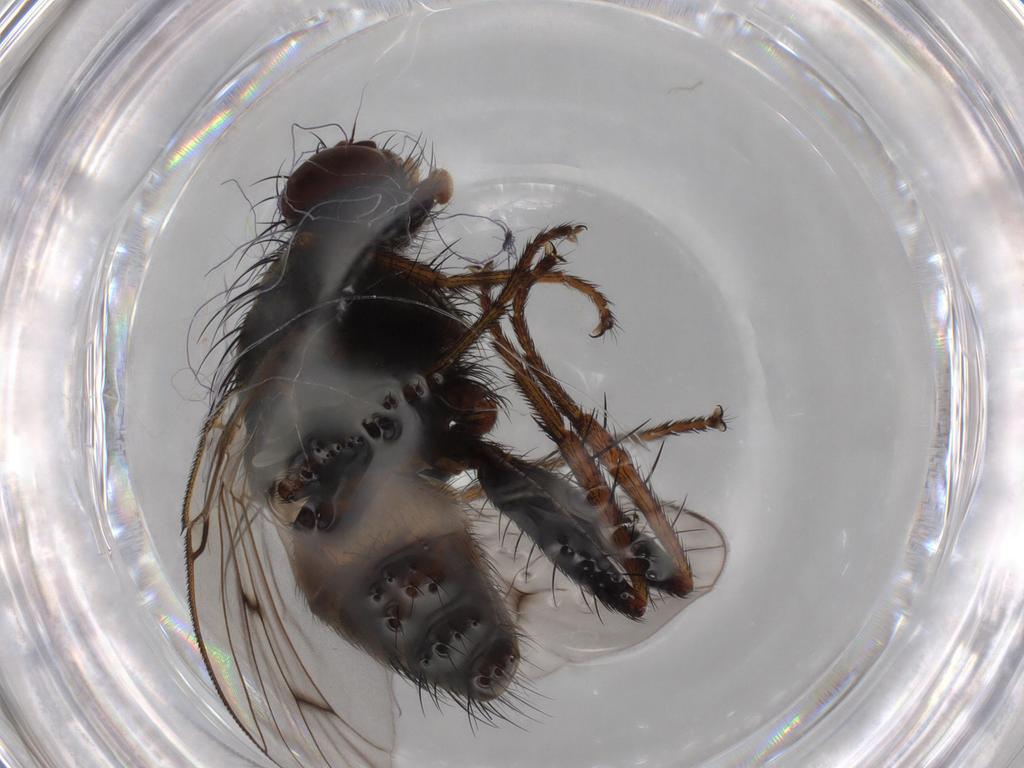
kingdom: Animalia
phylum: Arthropoda
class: Insecta
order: Diptera
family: Muscidae
